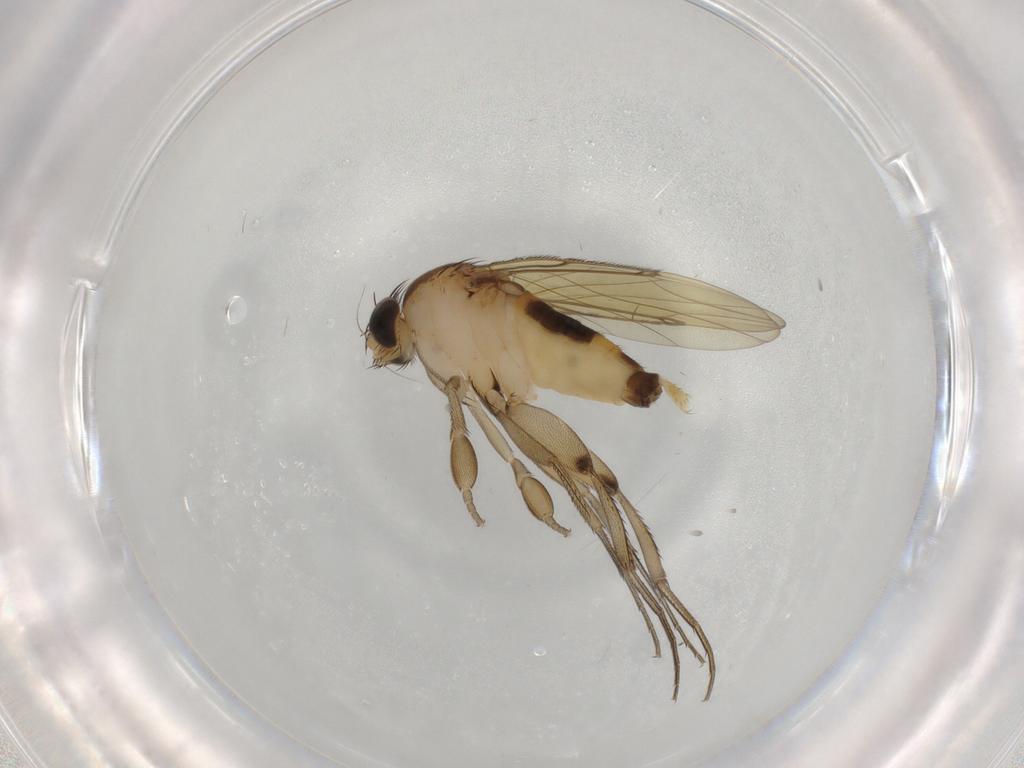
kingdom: Animalia
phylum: Arthropoda
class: Insecta
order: Diptera
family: Phoridae
